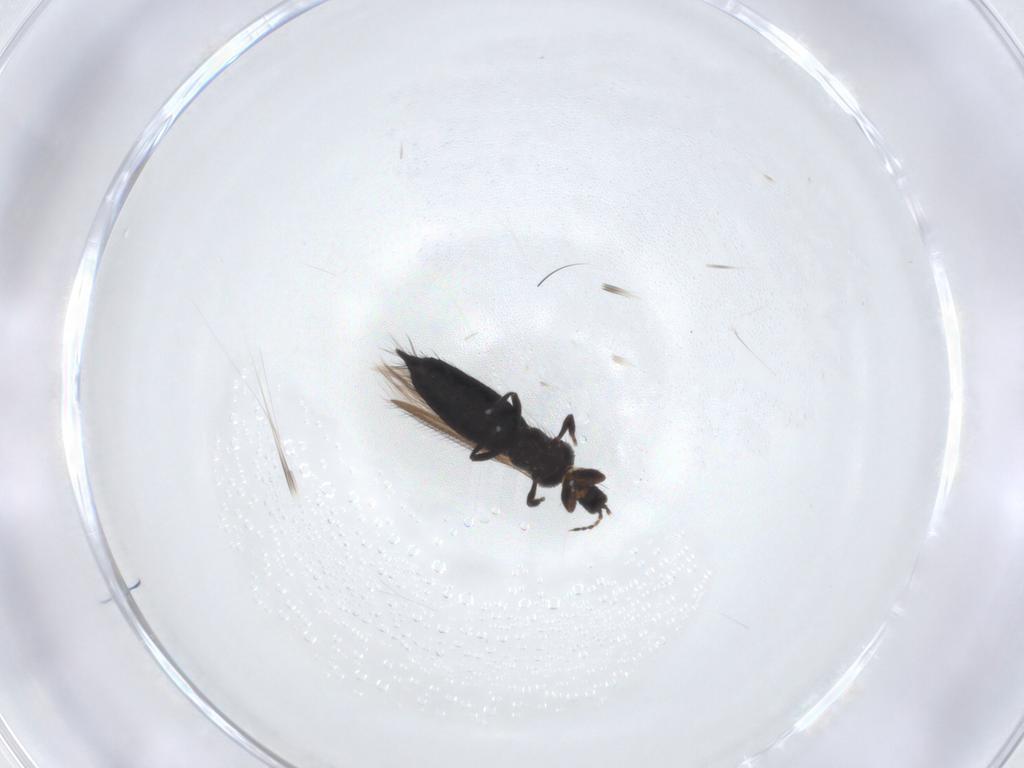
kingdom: Animalia
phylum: Arthropoda
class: Insecta
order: Thysanoptera
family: Thripidae
